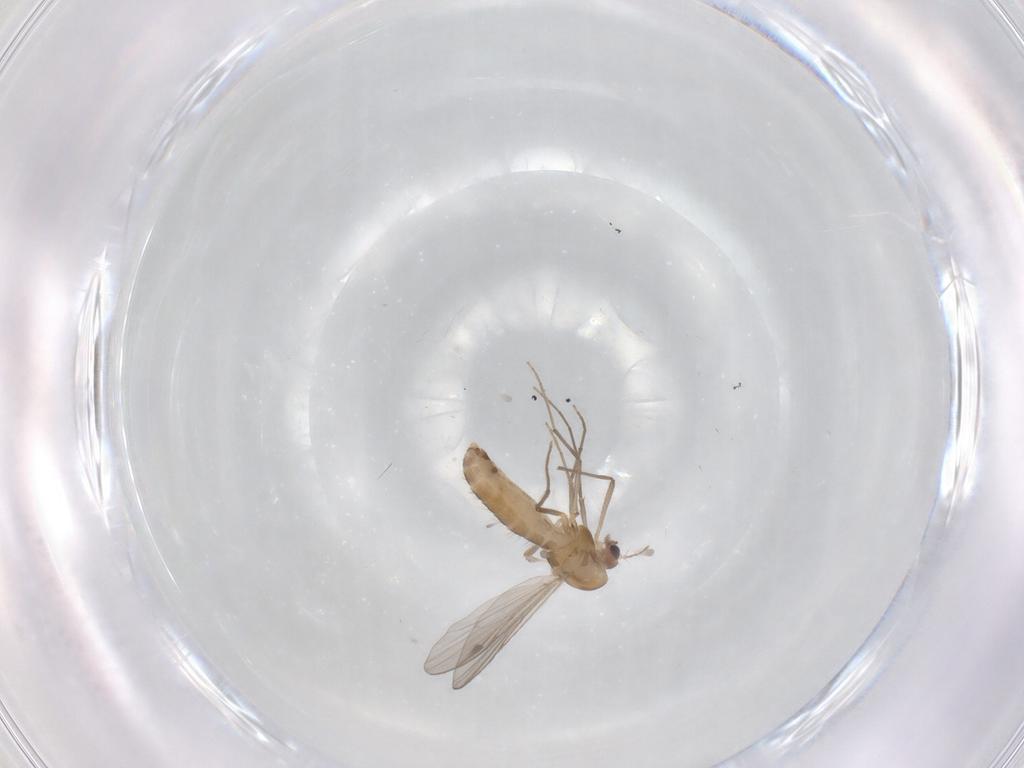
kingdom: Animalia
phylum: Arthropoda
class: Insecta
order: Diptera
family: Chironomidae
